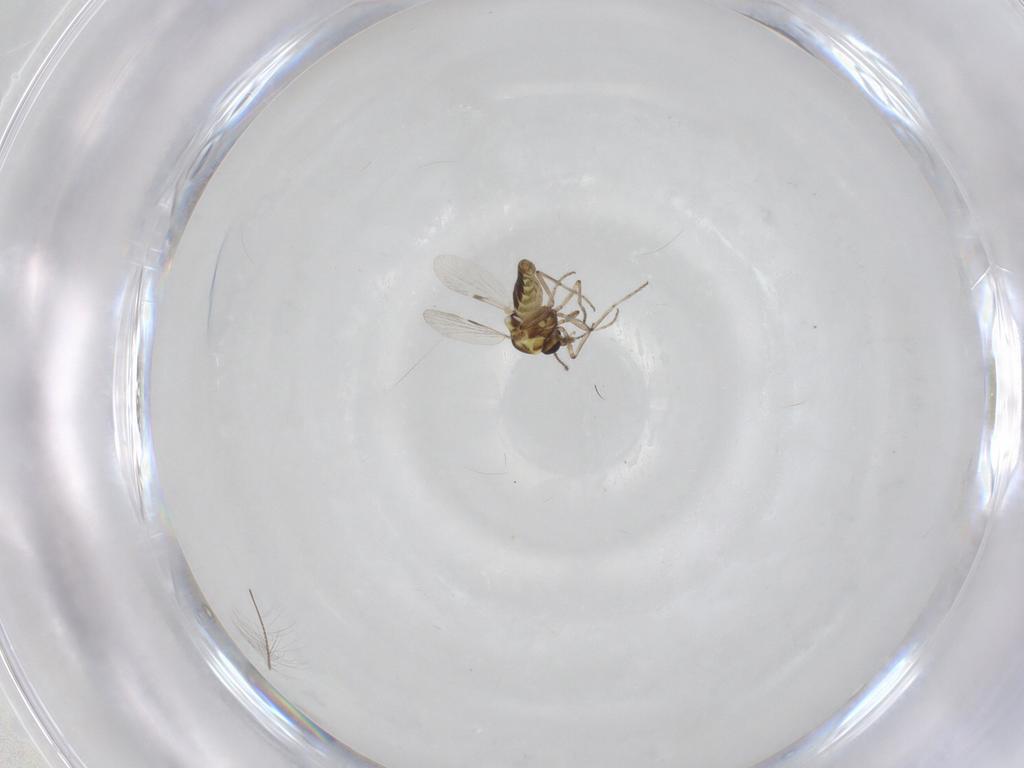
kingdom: Animalia
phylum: Arthropoda
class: Insecta
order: Diptera
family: Ceratopogonidae
